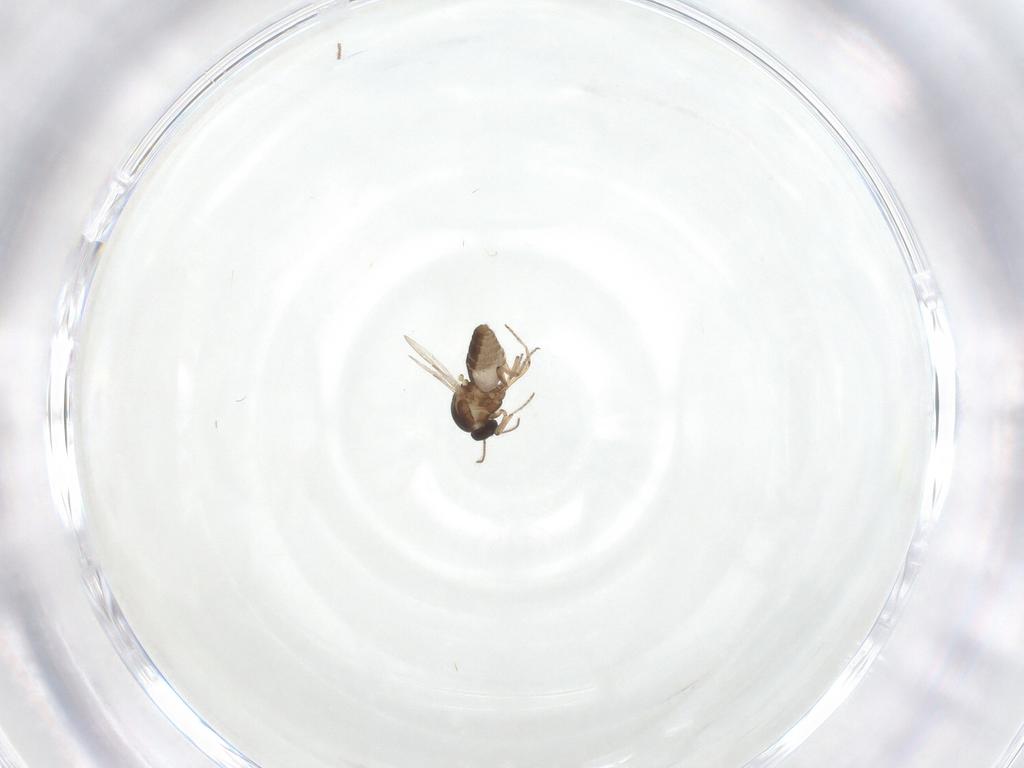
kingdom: Animalia
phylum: Arthropoda
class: Insecta
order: Diptera
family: Ceratopogonidae
